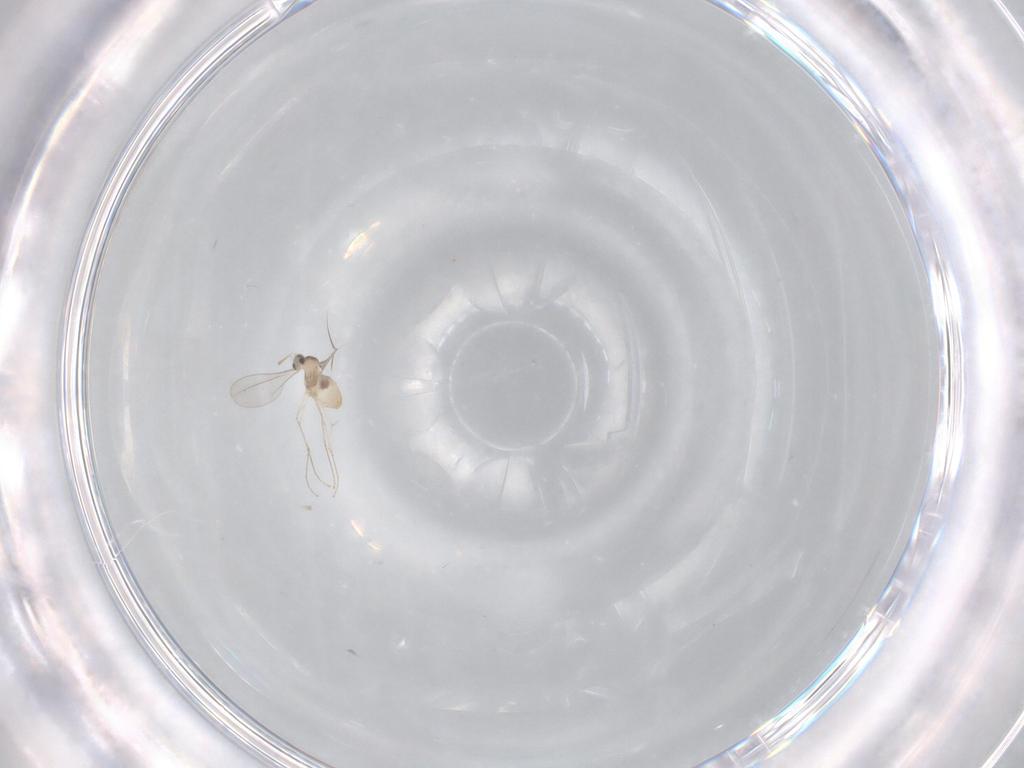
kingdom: Animalia
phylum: Arthropoda
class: Insecta
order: Diptera
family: Cecidomyiidae
